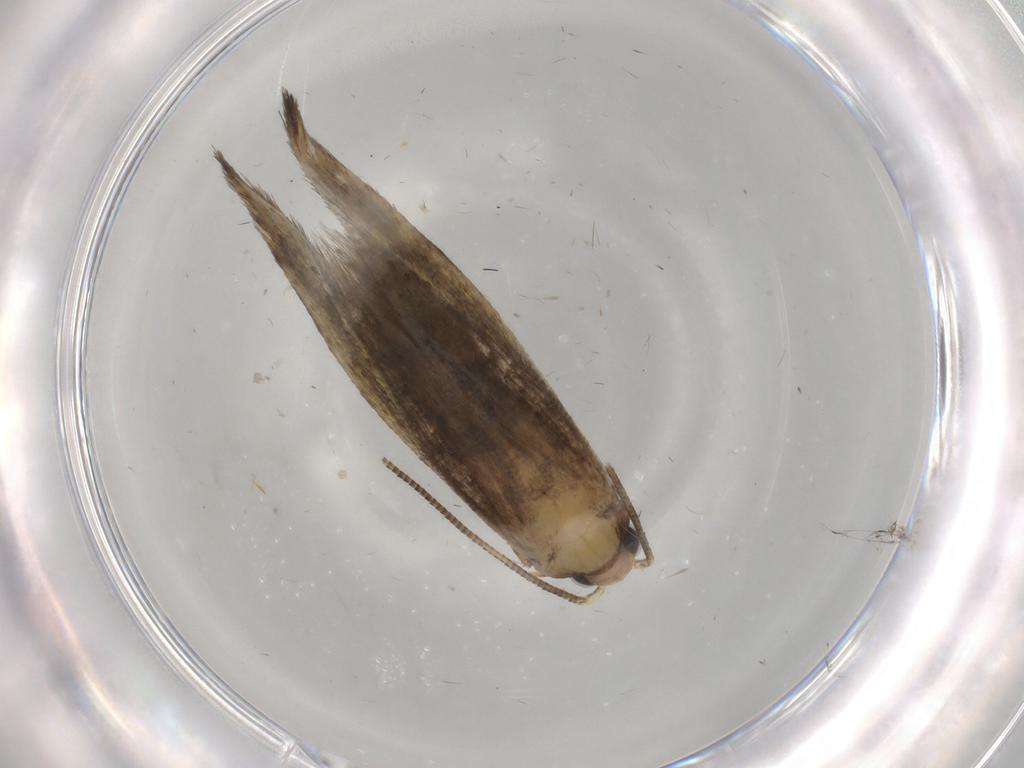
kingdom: Animalia
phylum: Arthropoda
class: Insecta
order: Lepidoptera
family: Tineidae
